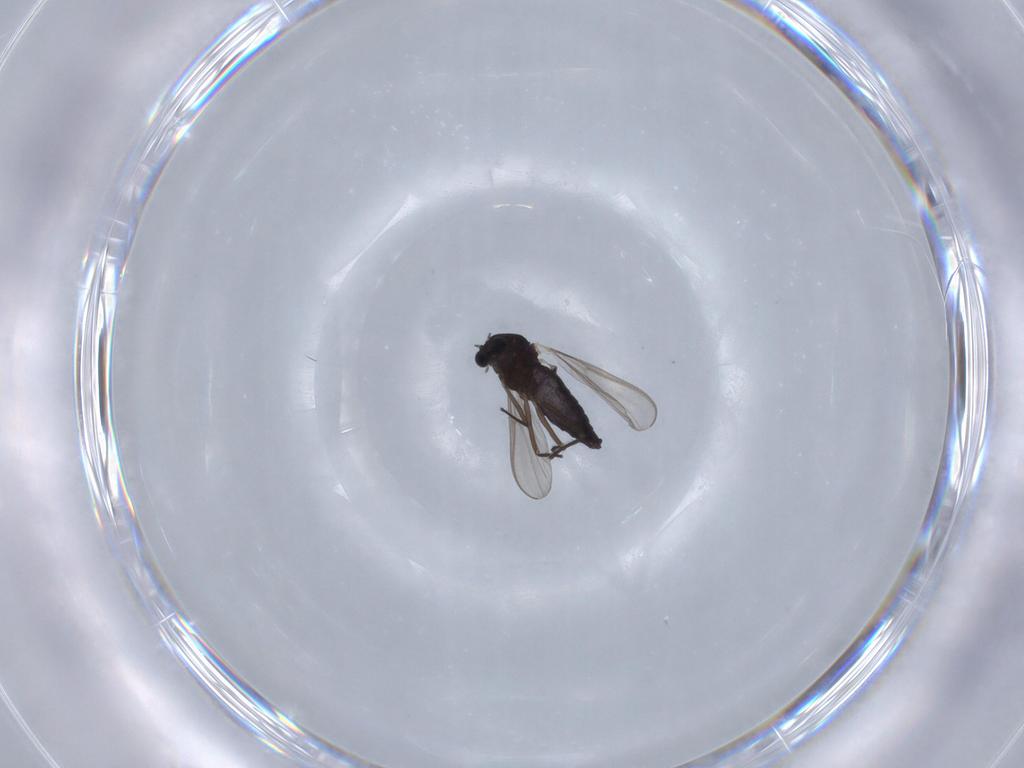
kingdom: Animalia
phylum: Arthropoda
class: Insecta
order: Diptera
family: Chironomidae
